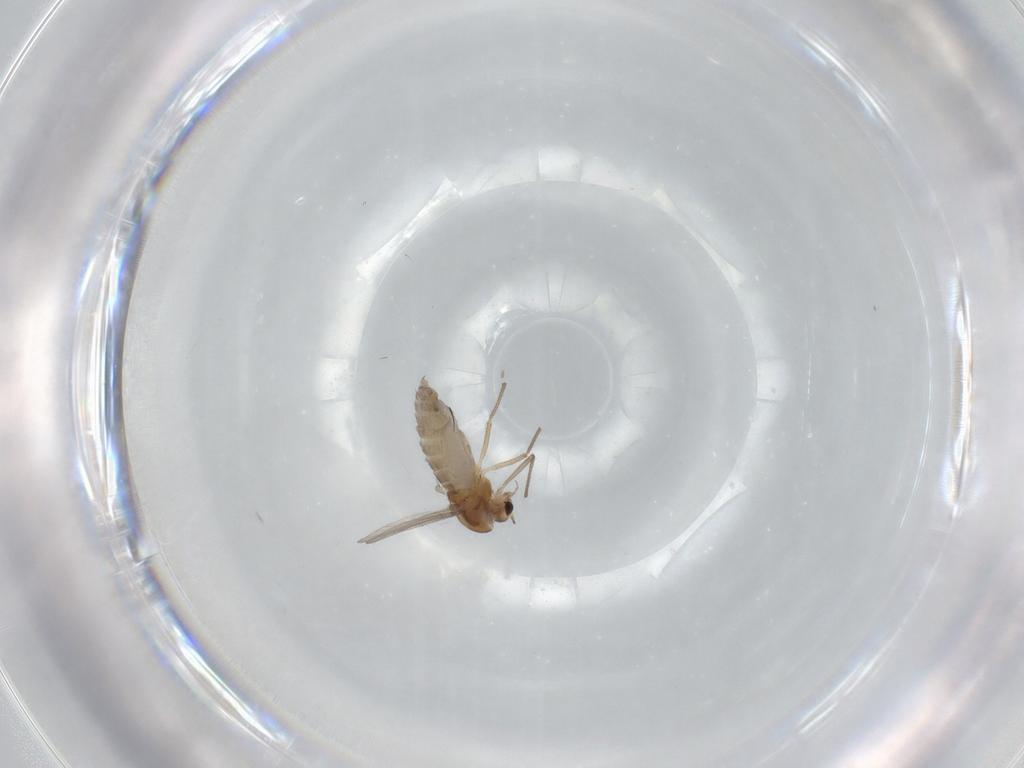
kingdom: Animalia
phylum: Arthropoda
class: Insecta
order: Diptera
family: Chironomidae
